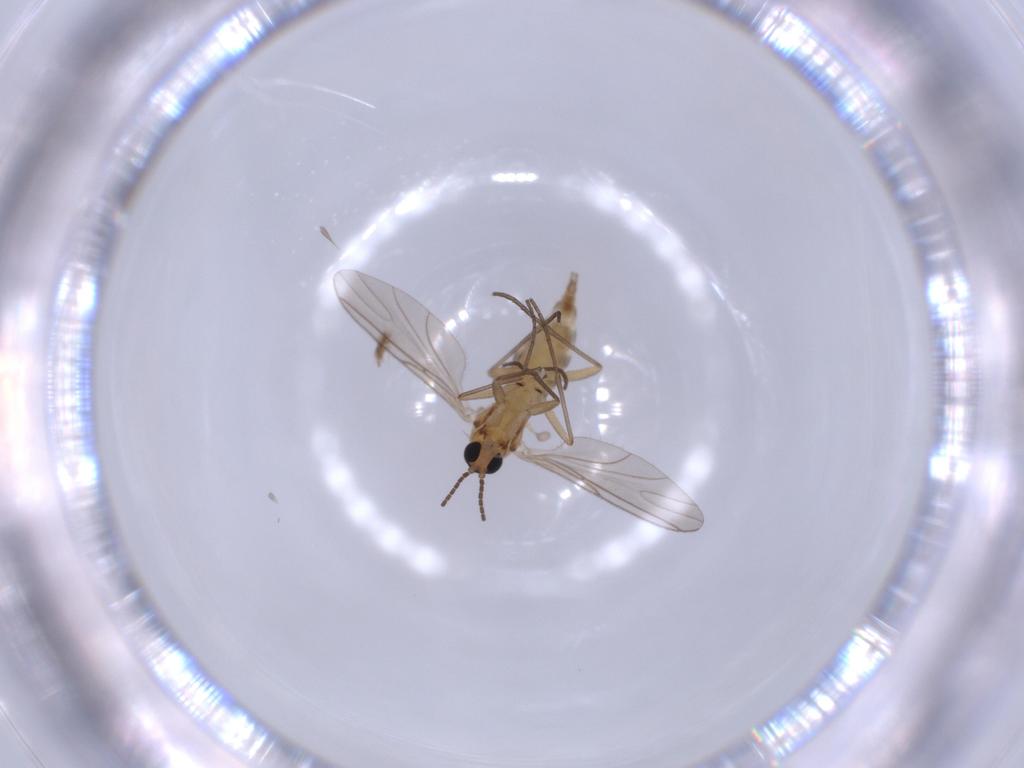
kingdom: Animalia
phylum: Arthropoda
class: Insecta
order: Diptera
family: Sciaridae
